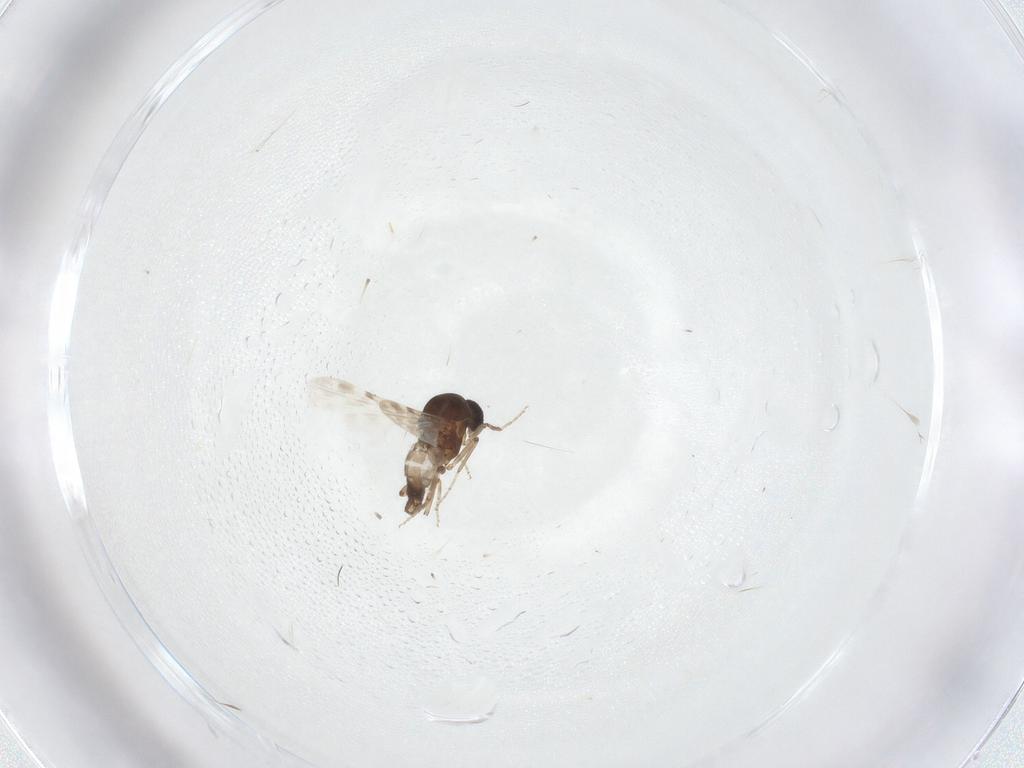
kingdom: Animalia
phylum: Arthropoda
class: Insecta
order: Diptera
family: Ceratopogonidae
